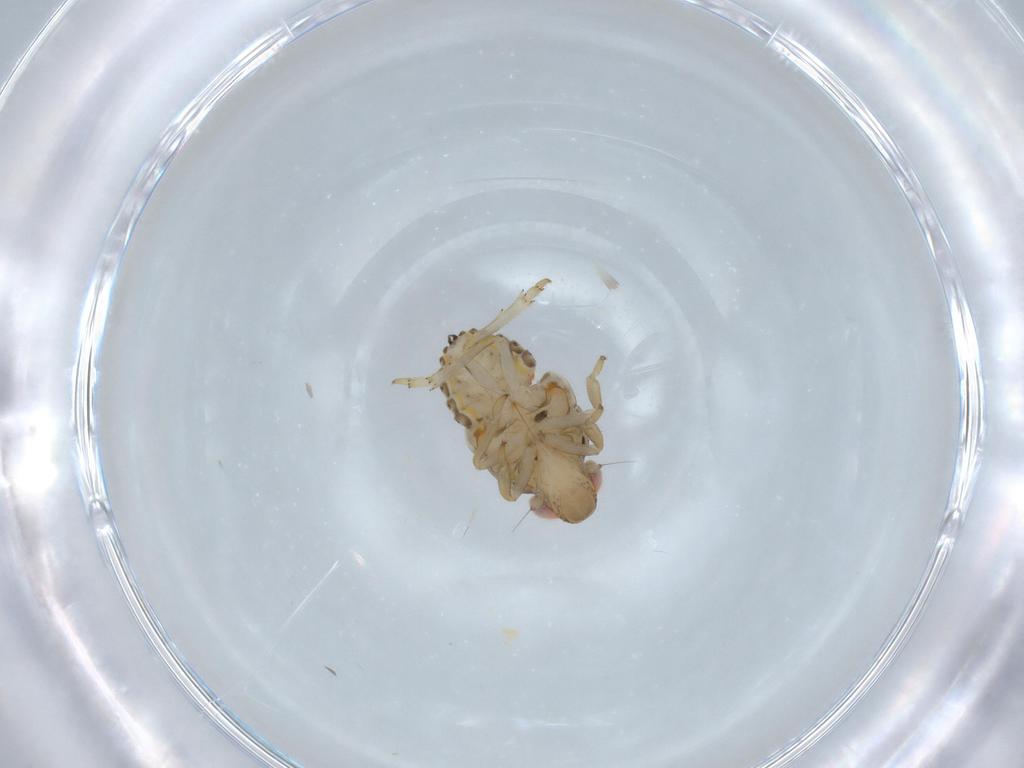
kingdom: Animalia
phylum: Arthropoda
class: Insecta
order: Hemiptera
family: Issidae
